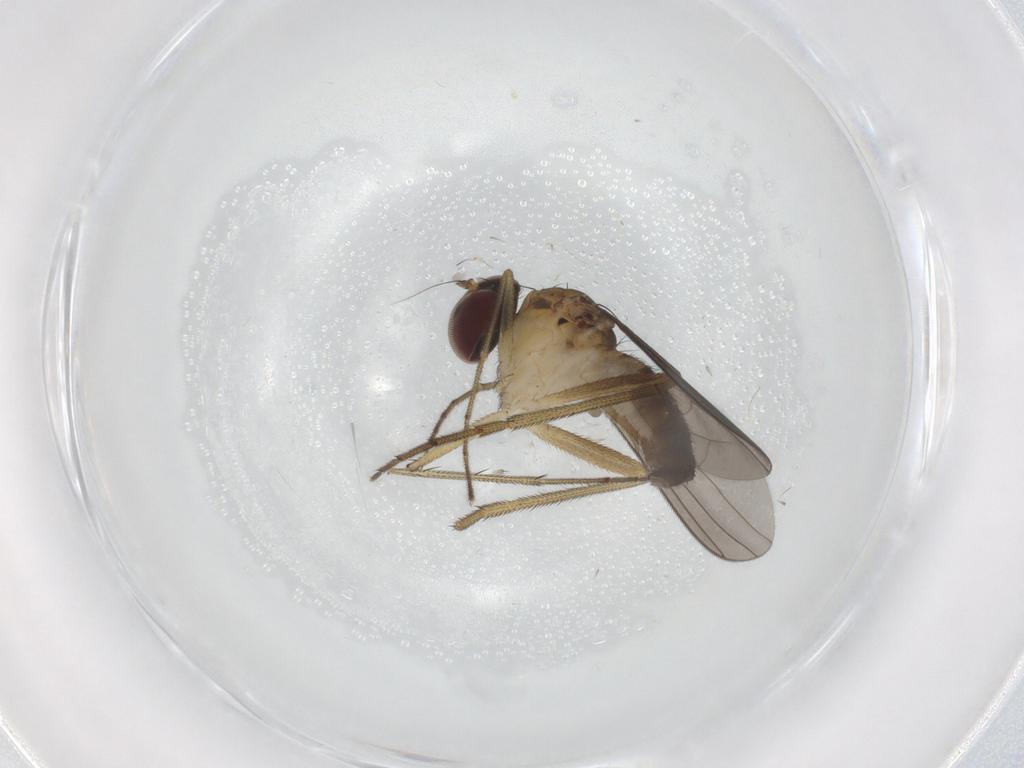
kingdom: Animalia
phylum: Arthropoda
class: Insecta
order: Diptera
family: Dolichopodidae
